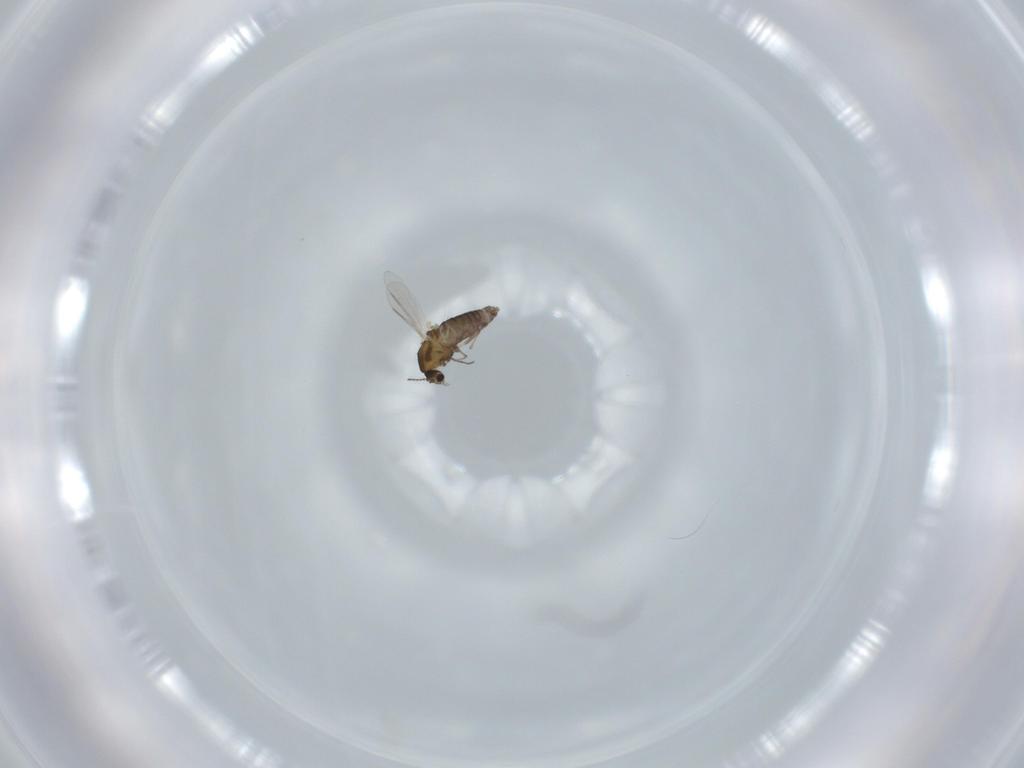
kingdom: Animalia
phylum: Arthropoda
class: Insecta
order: Diptera
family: Chironomidae
